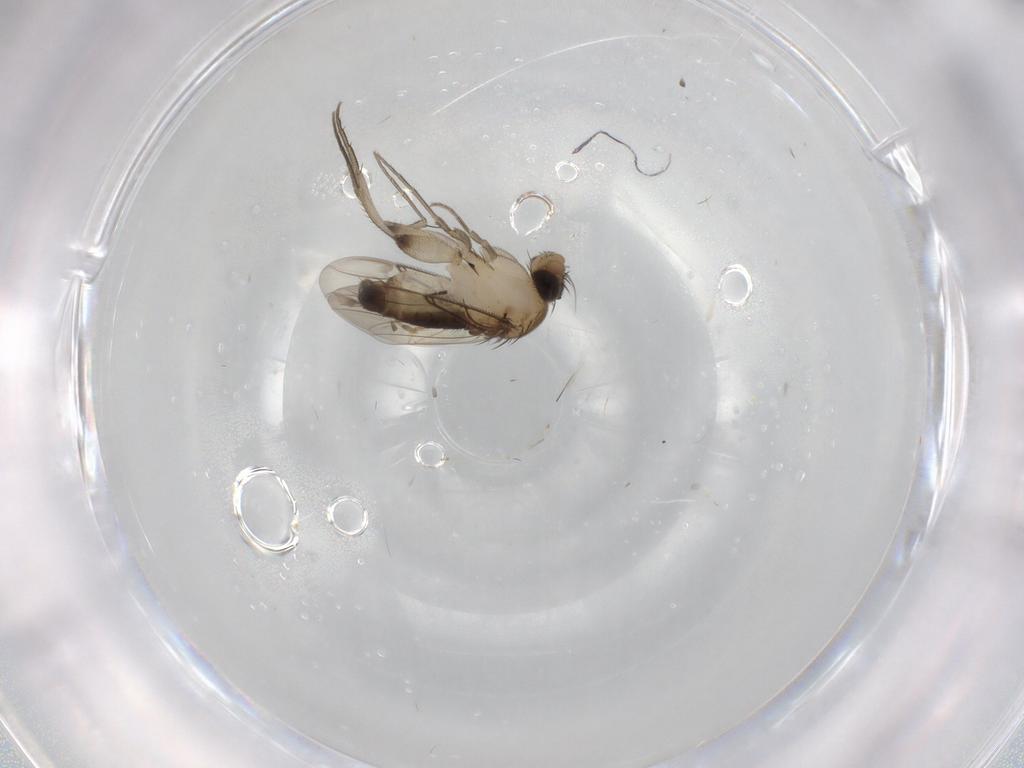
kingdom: Animalia
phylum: Arthropoda
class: Insecta
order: Diptera
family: Phoridae
